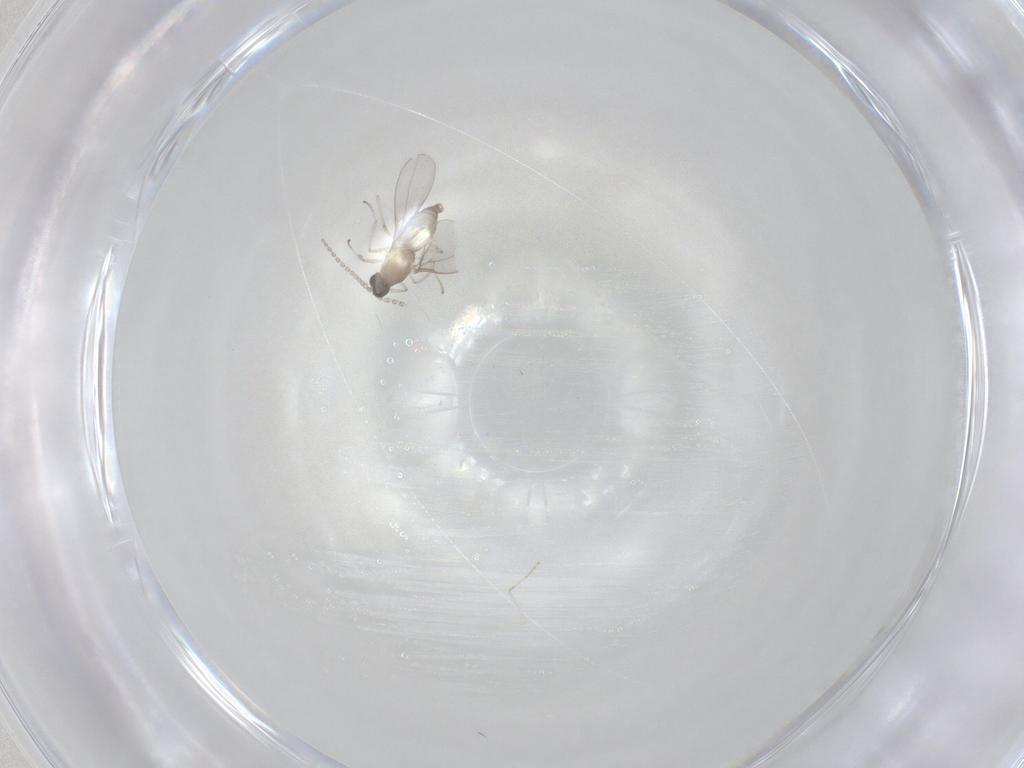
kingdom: Animalia
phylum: Arthropoda
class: Insecta
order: Diptera
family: Cecidomyiidae
